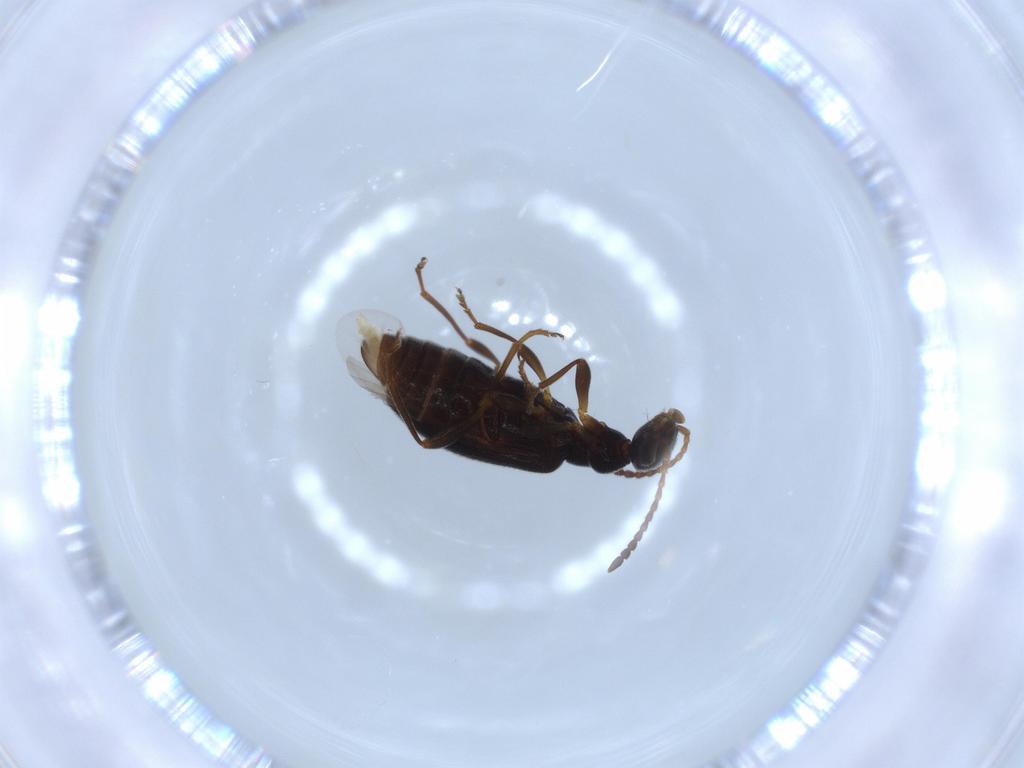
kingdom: Animalia
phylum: Arthropoda
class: Insecta
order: Coleoptera
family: Anthicidae
